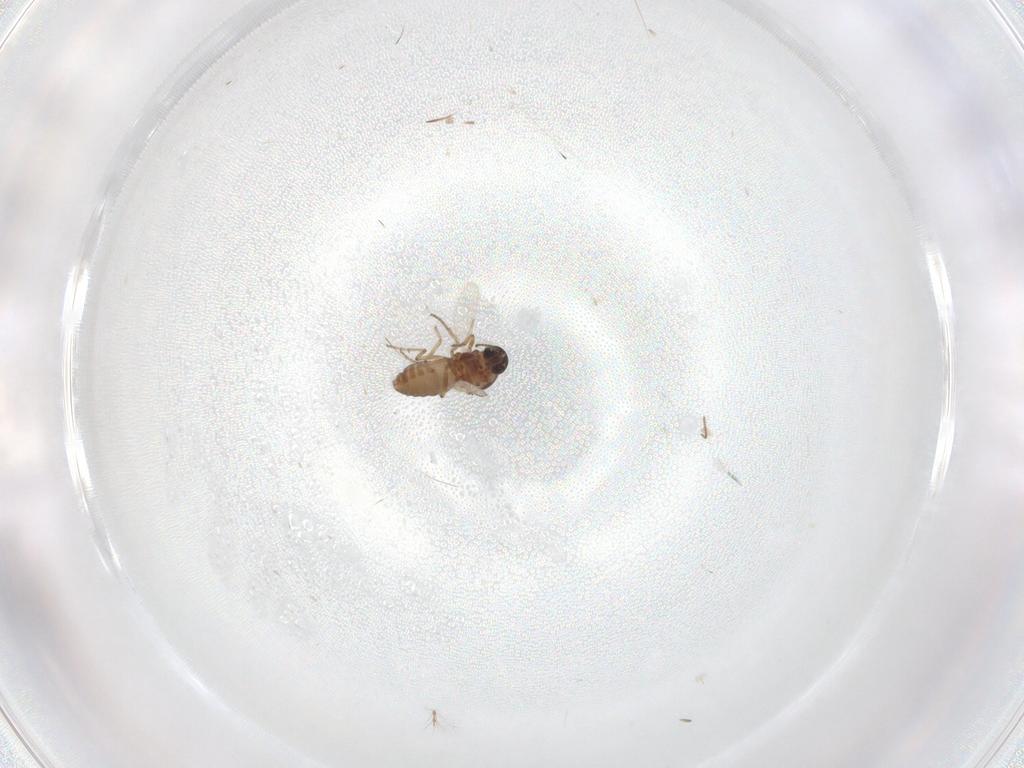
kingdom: Animalia
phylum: Arthropoda
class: Insecta
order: Diptera
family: Ceratopogonidae
